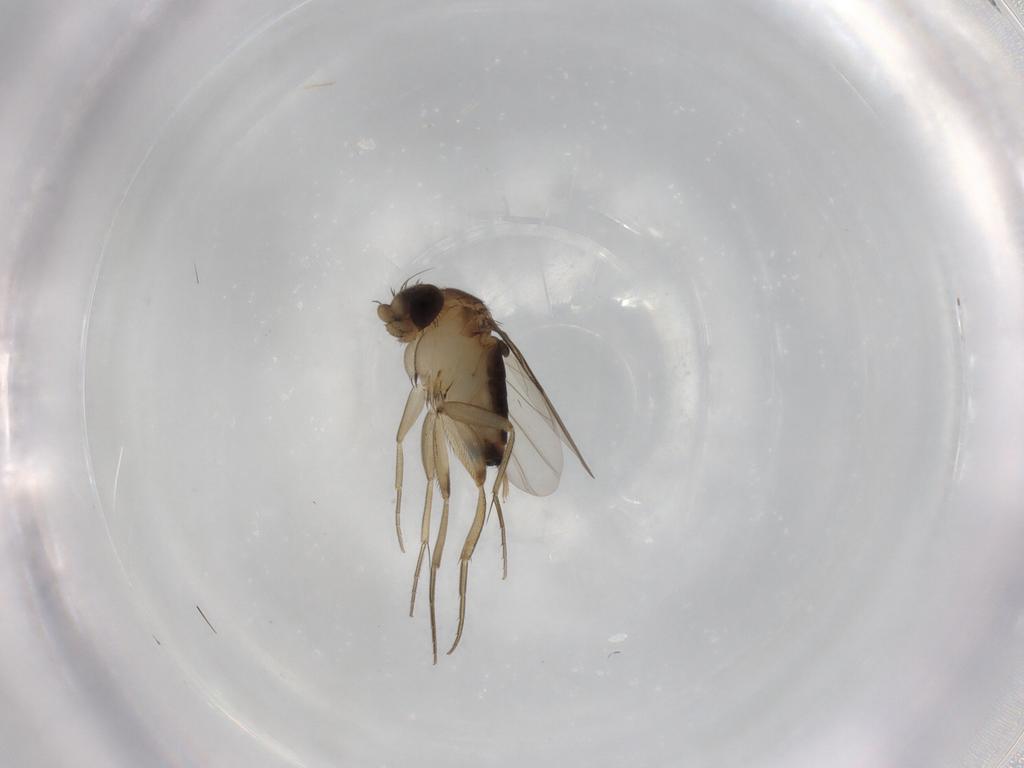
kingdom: Animalia
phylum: Arthropoda
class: Insecta
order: Diptera
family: Phoridae
